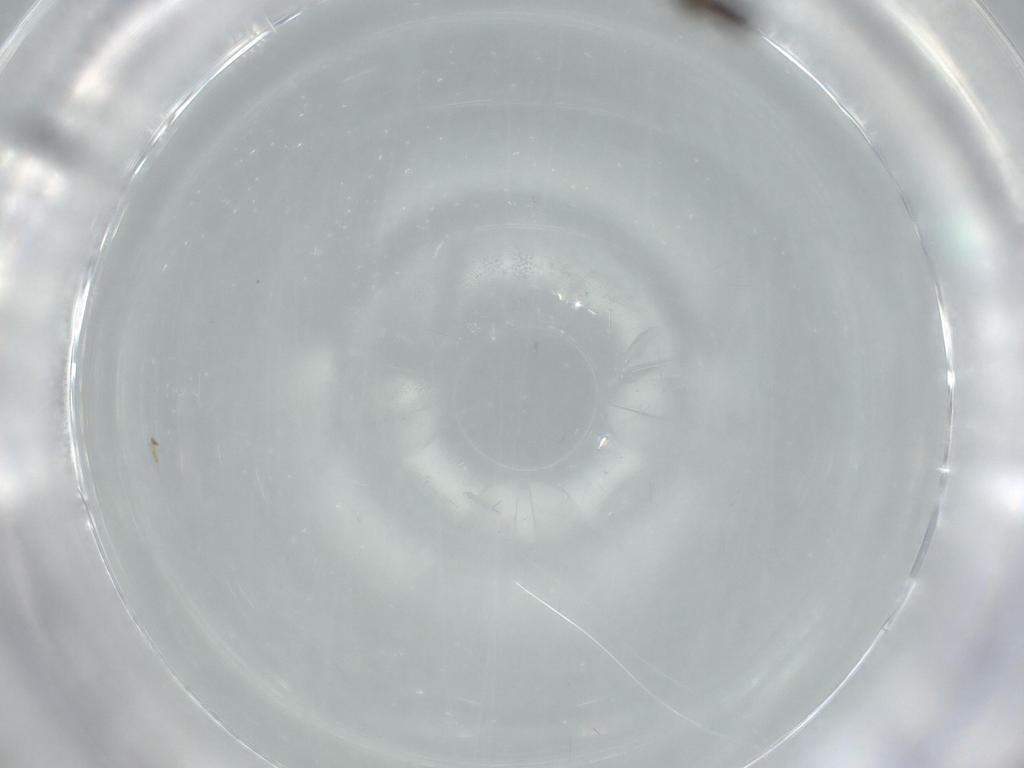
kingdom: Animalia
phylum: Arthropoda
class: Insecta
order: Thysanoptera
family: Thripidae
